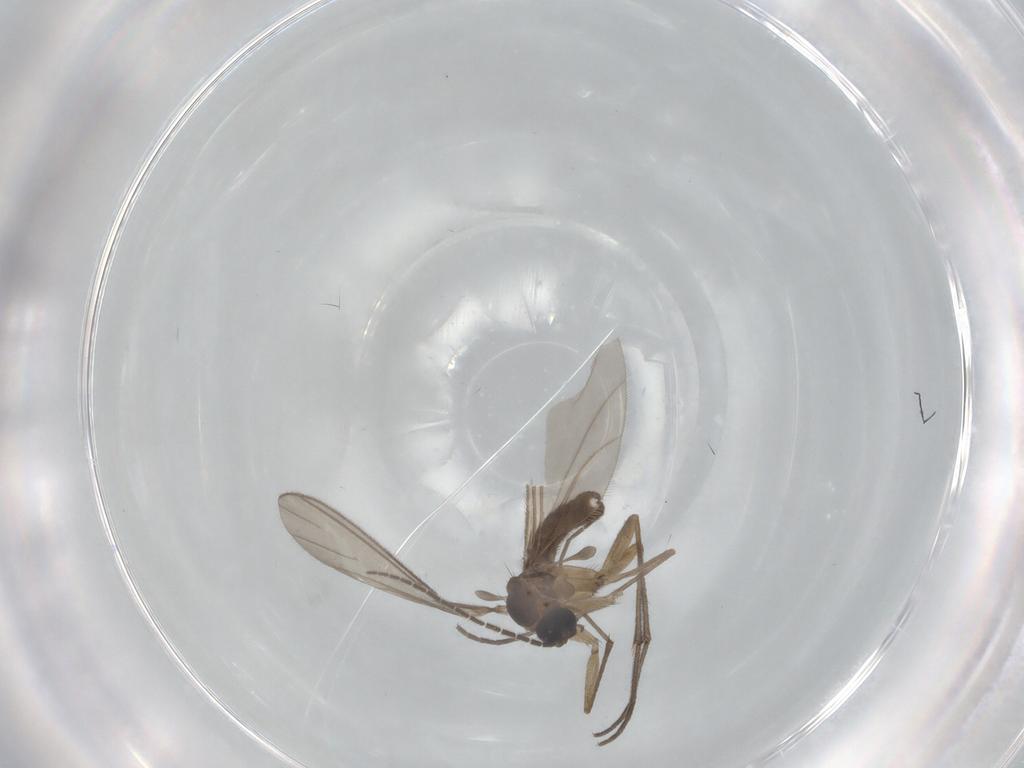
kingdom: Animalia
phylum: Arthropoda
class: Insecta
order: Diptera
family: Sciaridae
